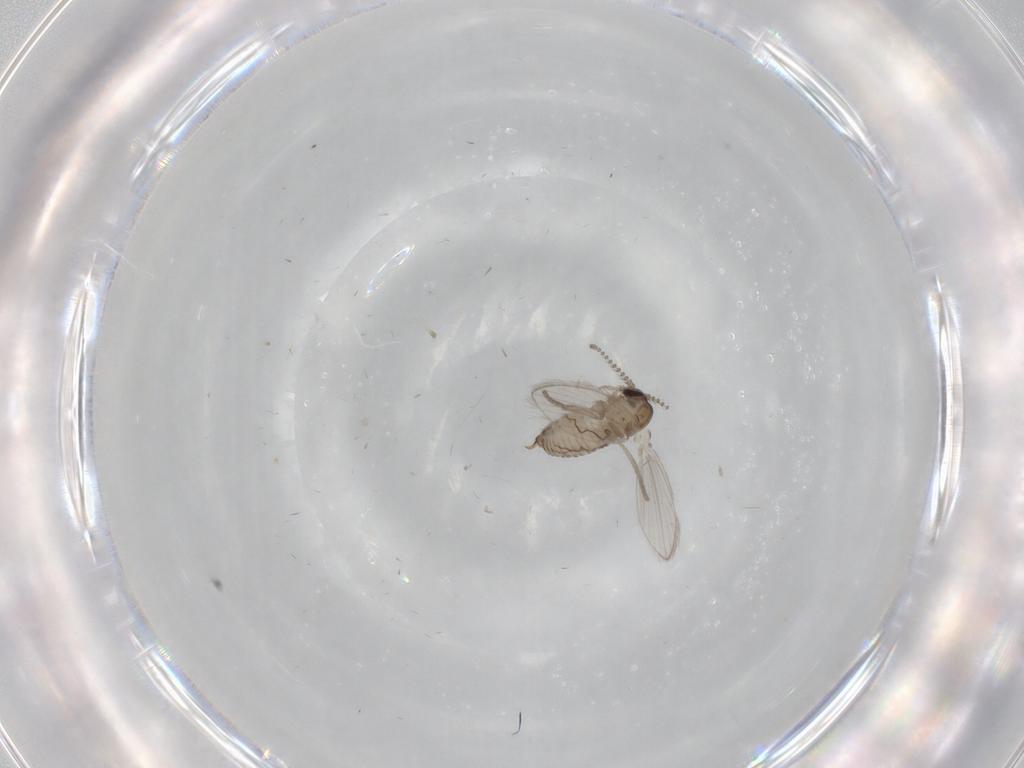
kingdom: Animalia
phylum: Arthropoda
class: Insecta
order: Diptera
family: Psychodidae
